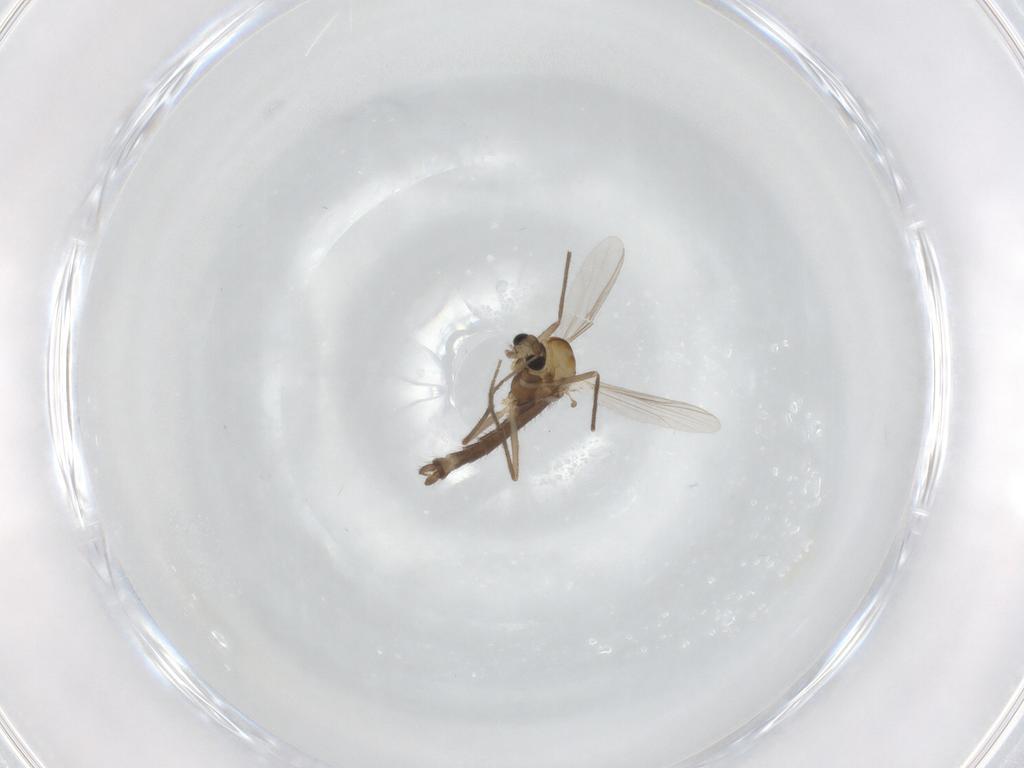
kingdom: Animalia
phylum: Arthropoda
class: Insecta
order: Diptera
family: Chironomidae
